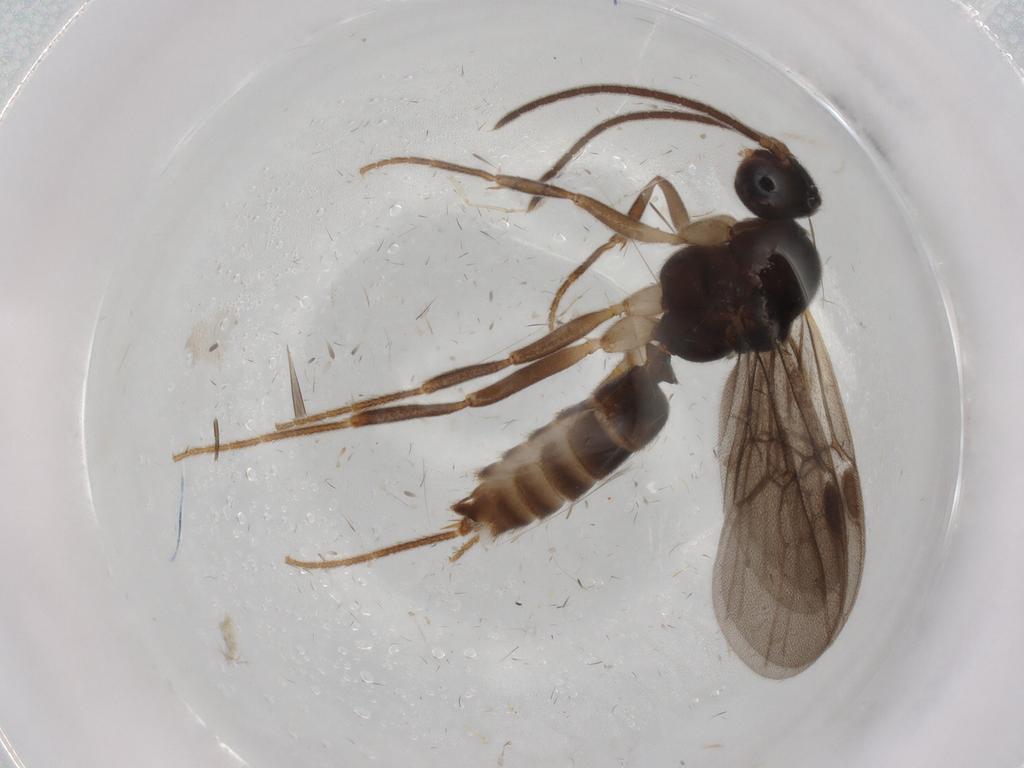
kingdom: Animalia
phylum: Arthropoda
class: Insecta
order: Hymenoptera
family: Formicidae
